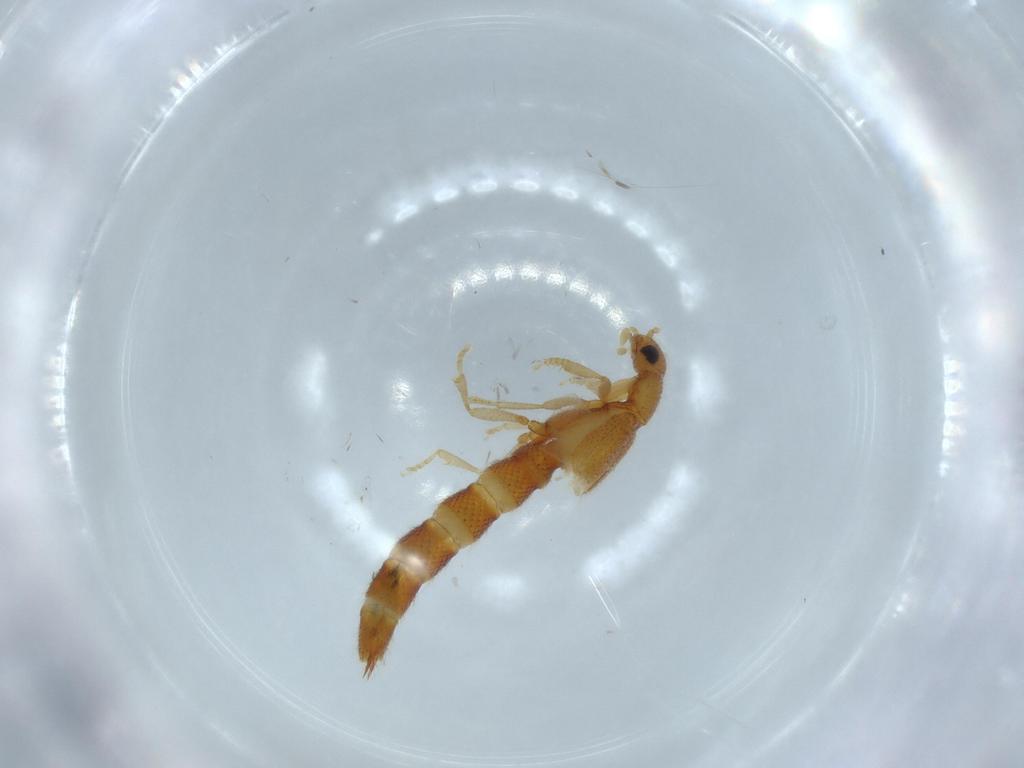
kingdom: Animalia
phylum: Arthropoda
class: Insecta
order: Coleoptera
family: Staphylinidae
